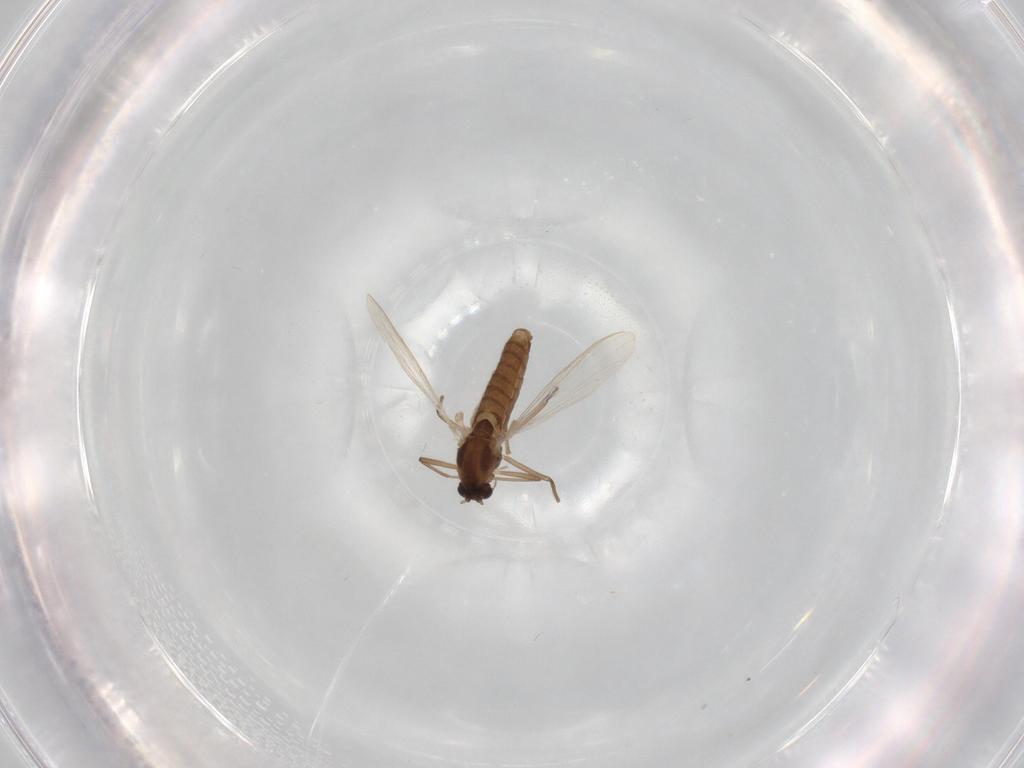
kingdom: Animalia
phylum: Arthropoda
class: Insecta
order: Diptera
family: Chironomidae
